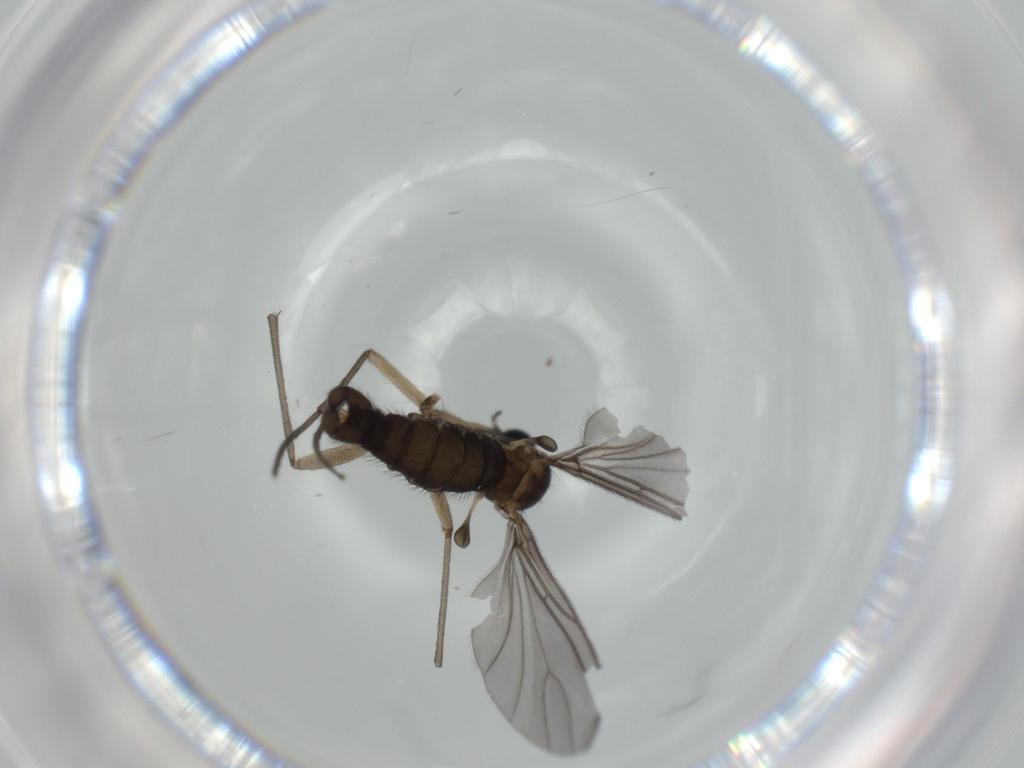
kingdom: Animalia
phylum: Arthropoda
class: Insecta
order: Diptera
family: Sciaridae
